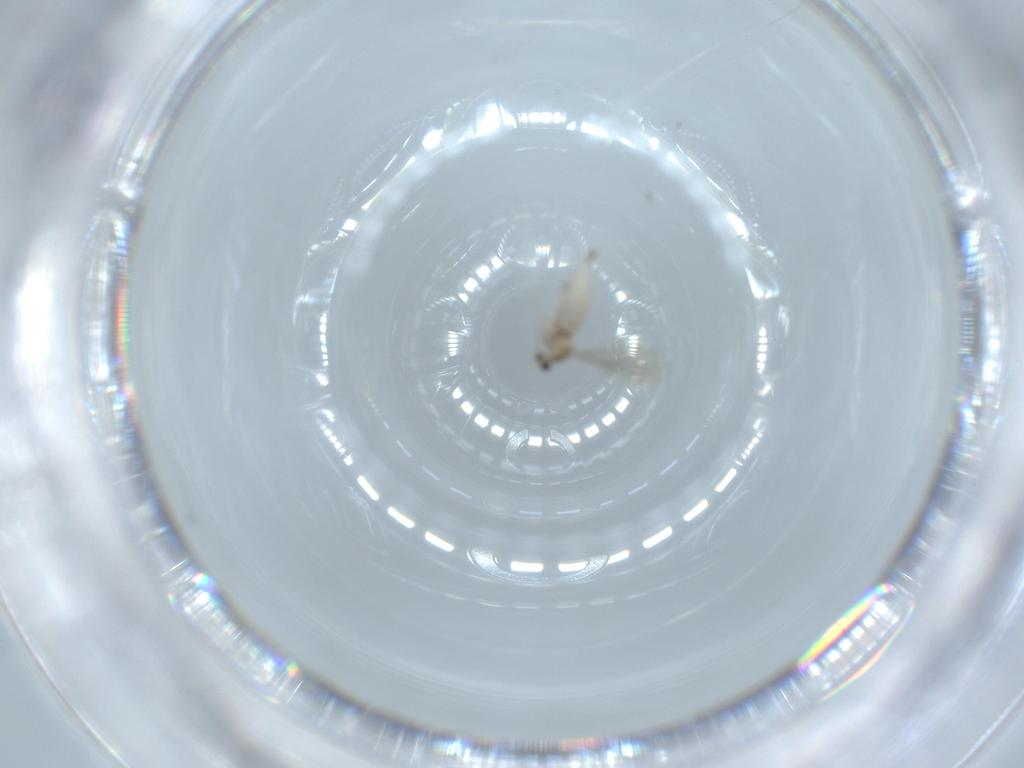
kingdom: Animalia
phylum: Arthropoda
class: Insecta
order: Diptera
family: Cecidomyiidae
